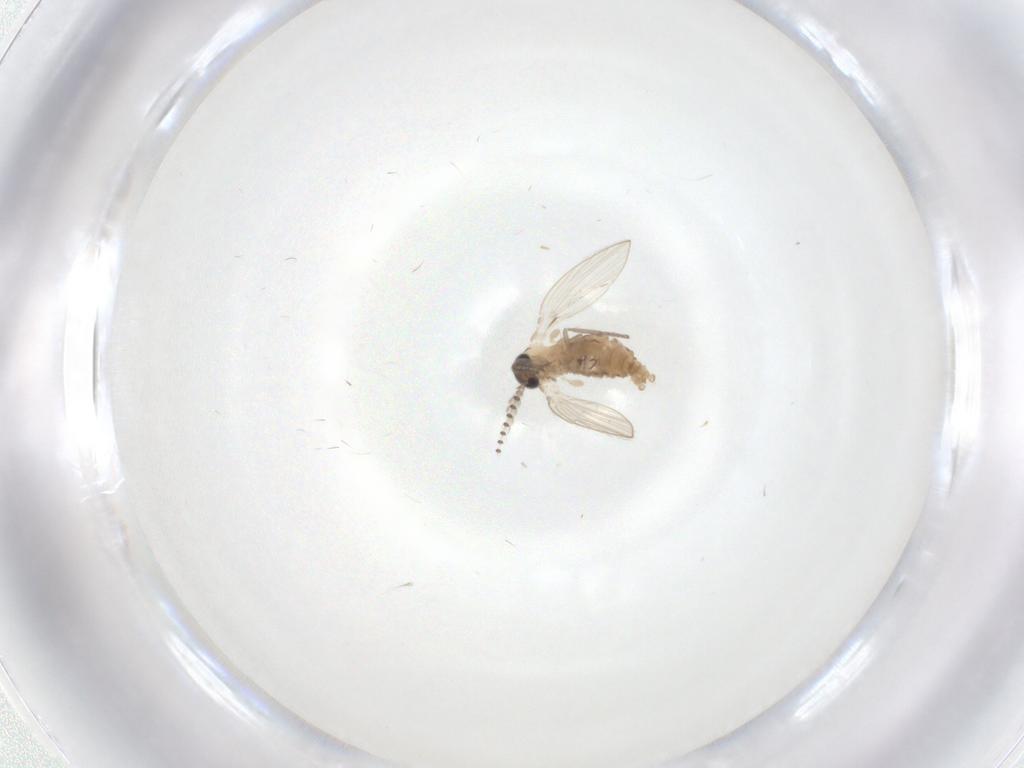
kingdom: Animalia
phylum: Arthropoda
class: Insecta
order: Diptera
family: Psychodidae
